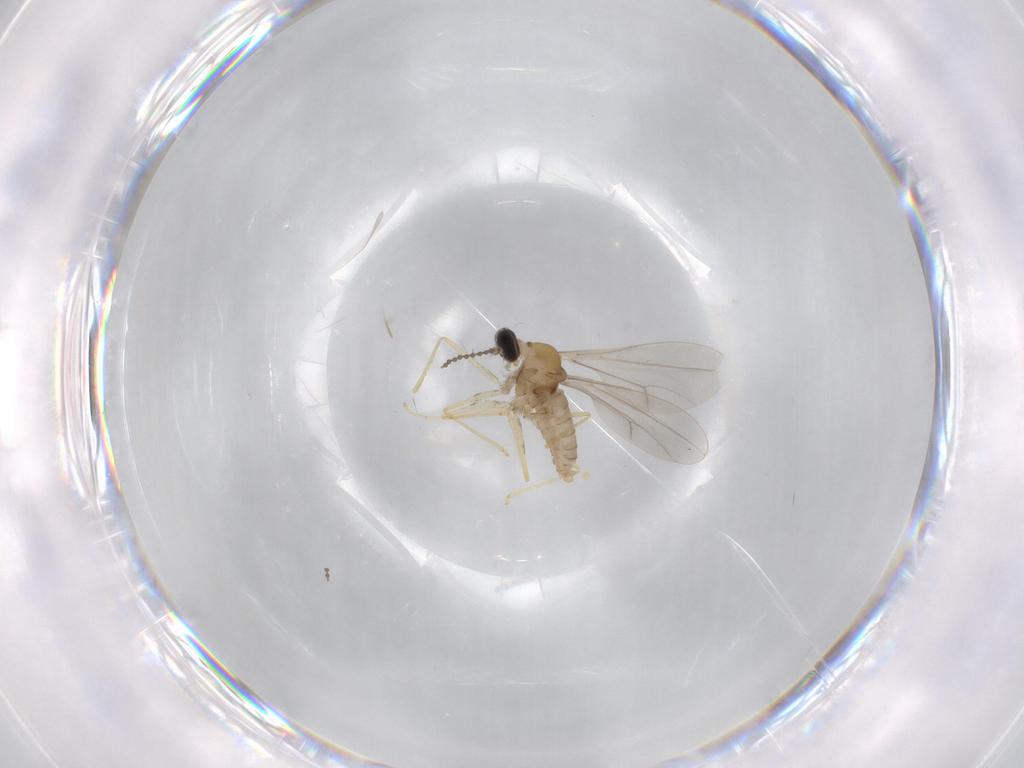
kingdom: Animalia
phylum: Arthropoda
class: Insecta
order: Diptera
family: Cecidomyiidae
